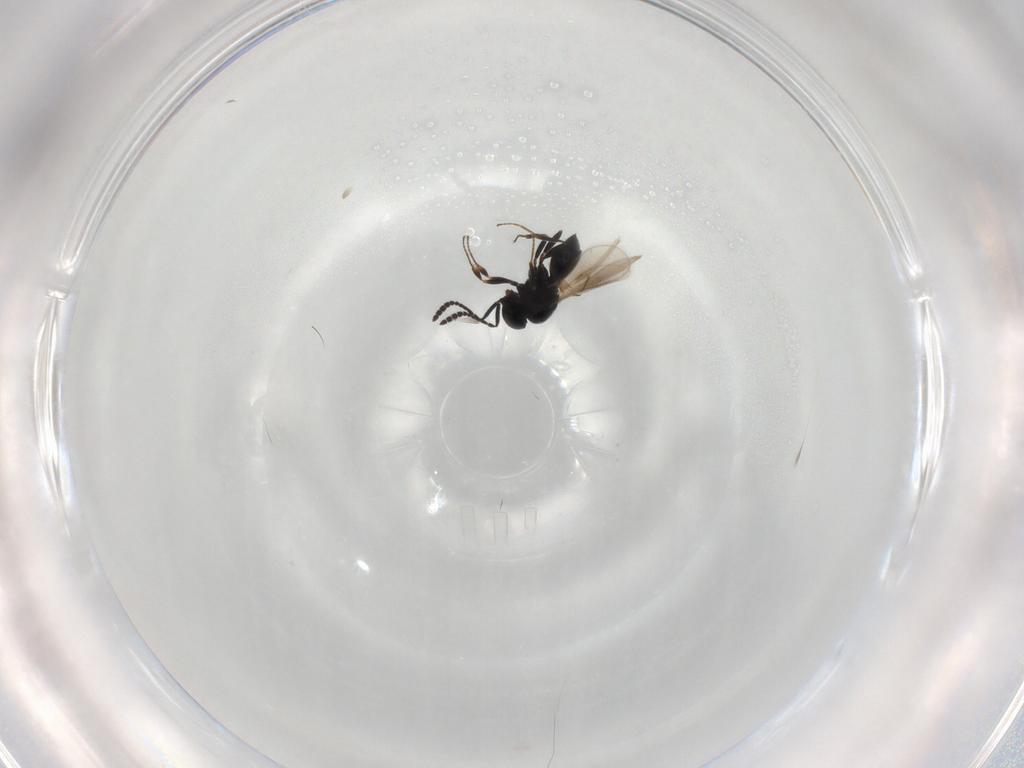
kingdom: Animalia
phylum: Arthropoda
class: Insecta
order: Hymenoptera
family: Scelionidae
